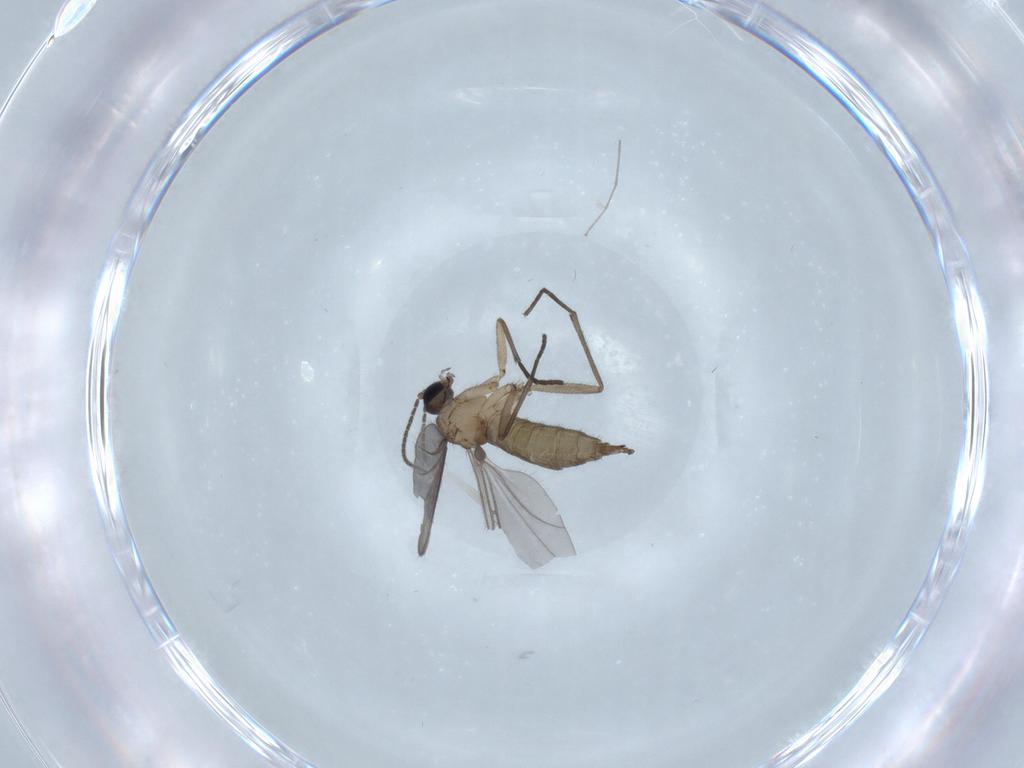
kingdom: Animalia
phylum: Arthropoda
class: Insecta
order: Diptera
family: Sciaridae
